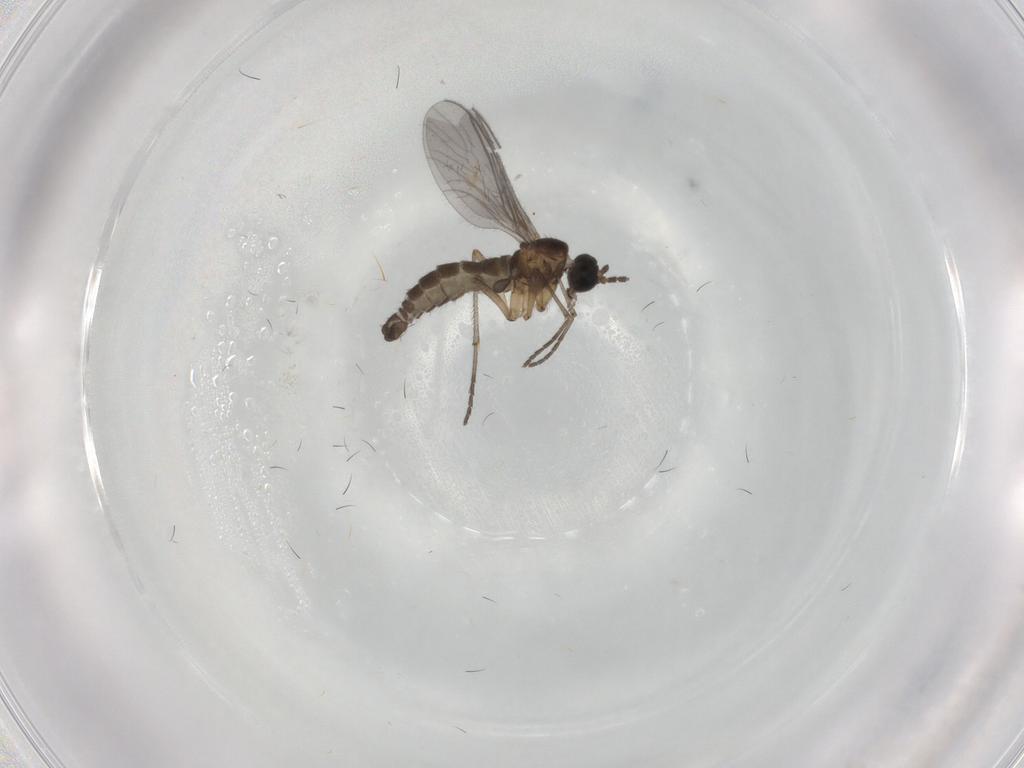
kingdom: Animalia
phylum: Arthropoda
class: Insecta
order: Diptera
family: Sciaridae
